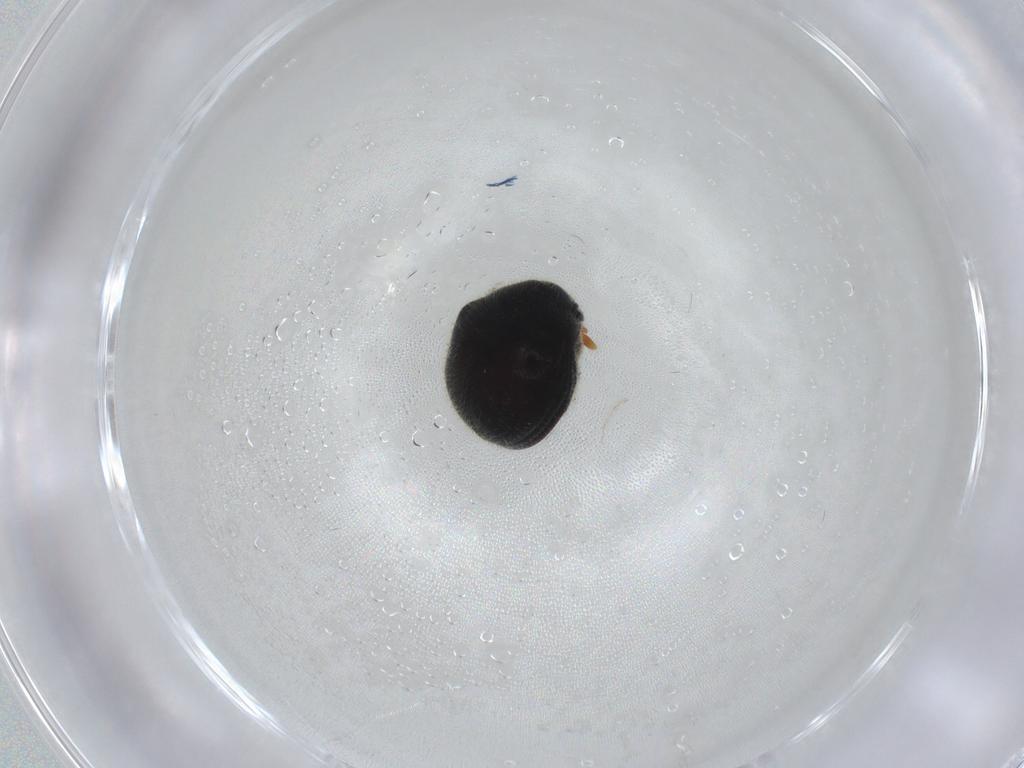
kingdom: Animalia
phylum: Arthropoda
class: Insecta
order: Coleoptera
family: Ptinidae
